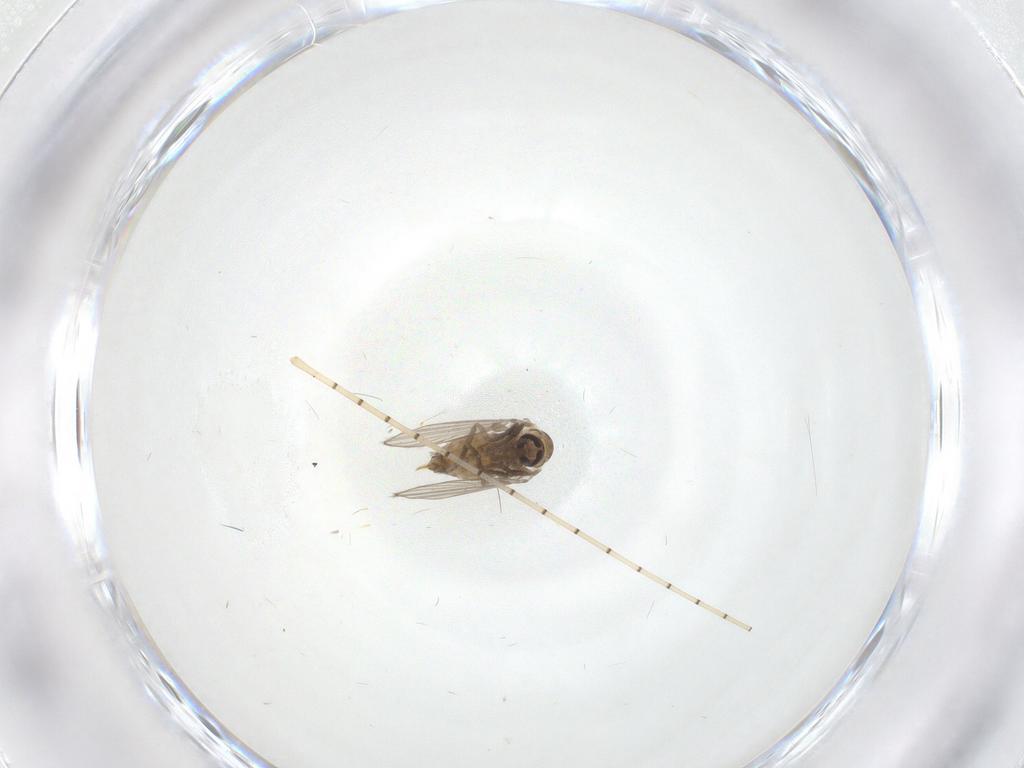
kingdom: Animalia
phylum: Arthropoda
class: Insecta
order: Diptera
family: Psychodidae
